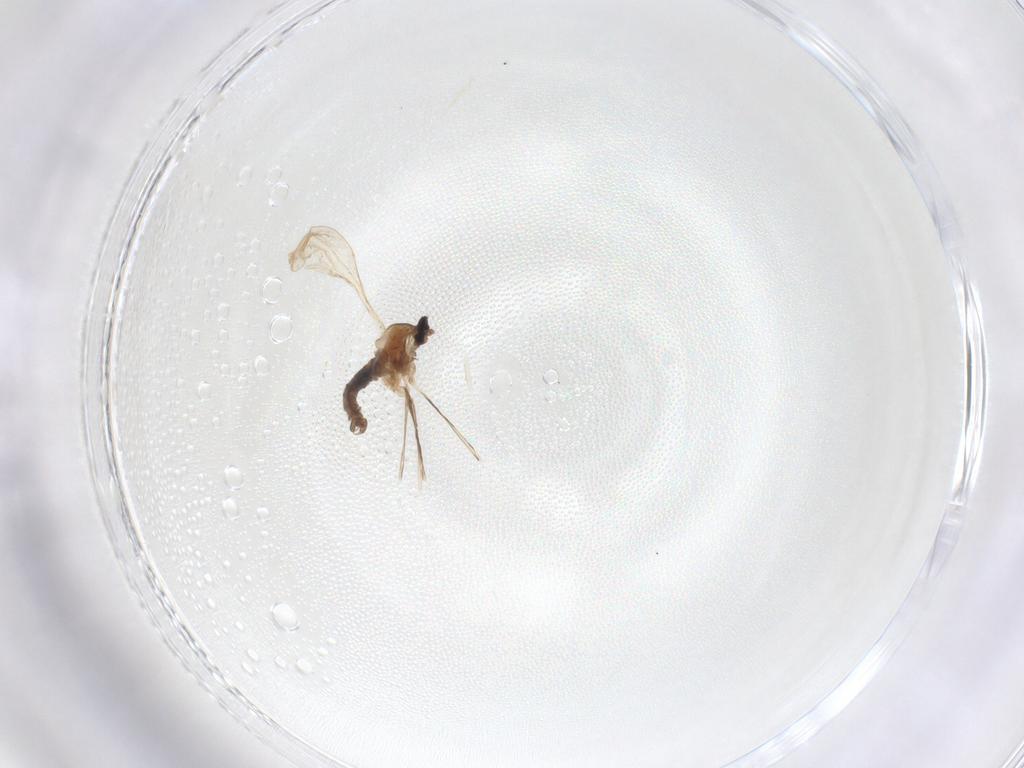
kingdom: Animalia
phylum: Arthropoda
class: Insecta
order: Diptera
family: Cecidomyiidae
